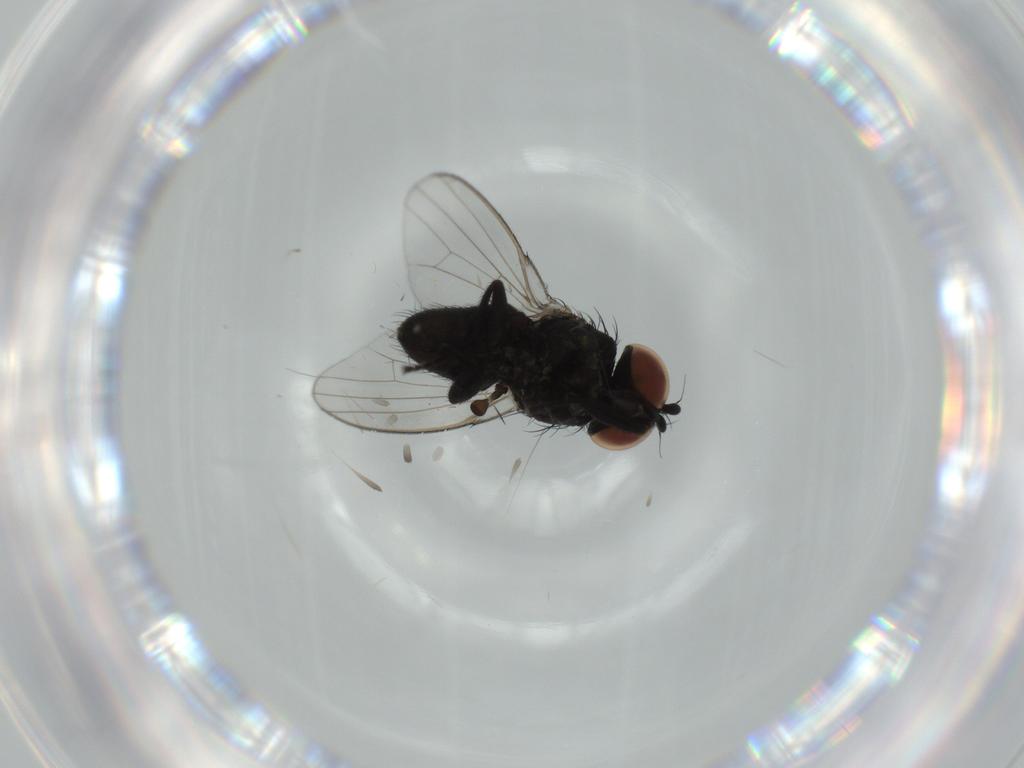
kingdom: Animalia
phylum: Arthropoda
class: Insecta
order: Diptera
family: Milichiidae
